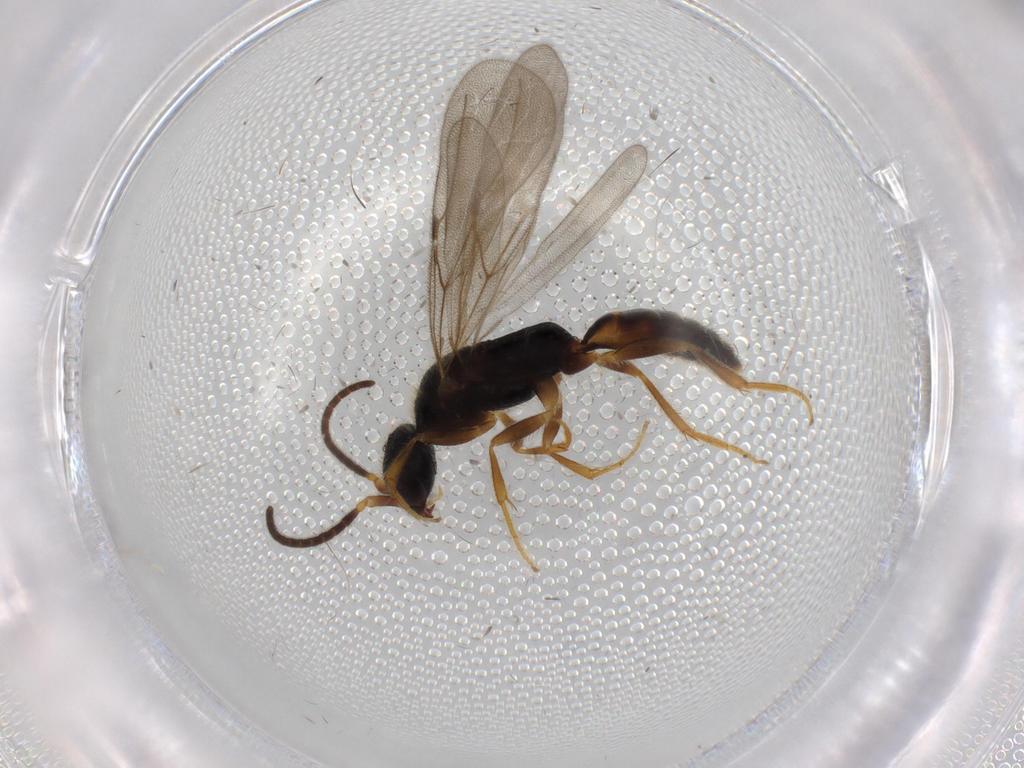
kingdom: Animalia
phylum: Arthropoda
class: Insecta
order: Hymenoptera
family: Bethylidae
